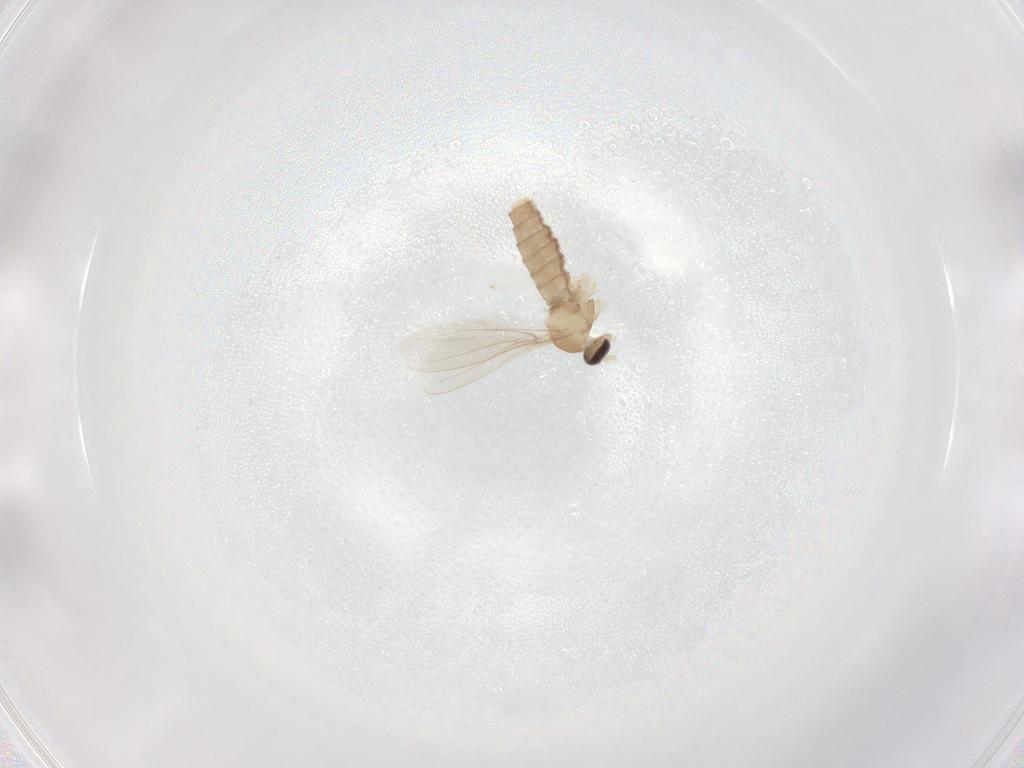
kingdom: Animalia
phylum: Arthropoda
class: Insecta
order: Diptera
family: Cecidomyiidae
